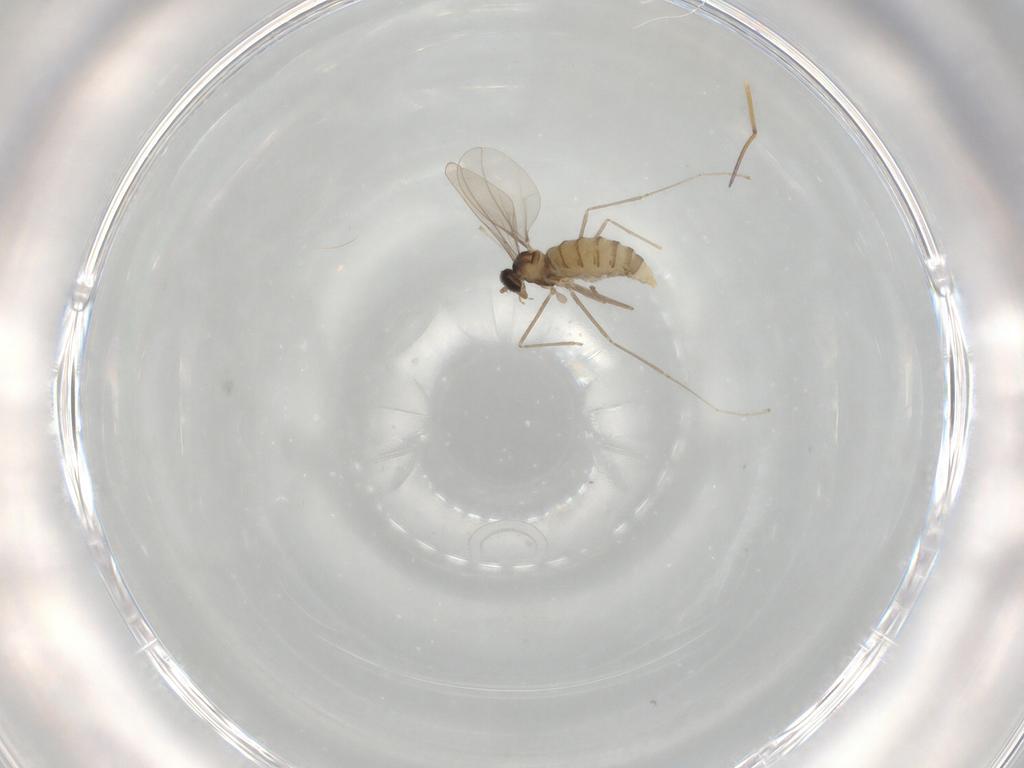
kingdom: Animalia
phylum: Arthropoda
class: Insecta
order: Diptera
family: Cecidomyiidae
